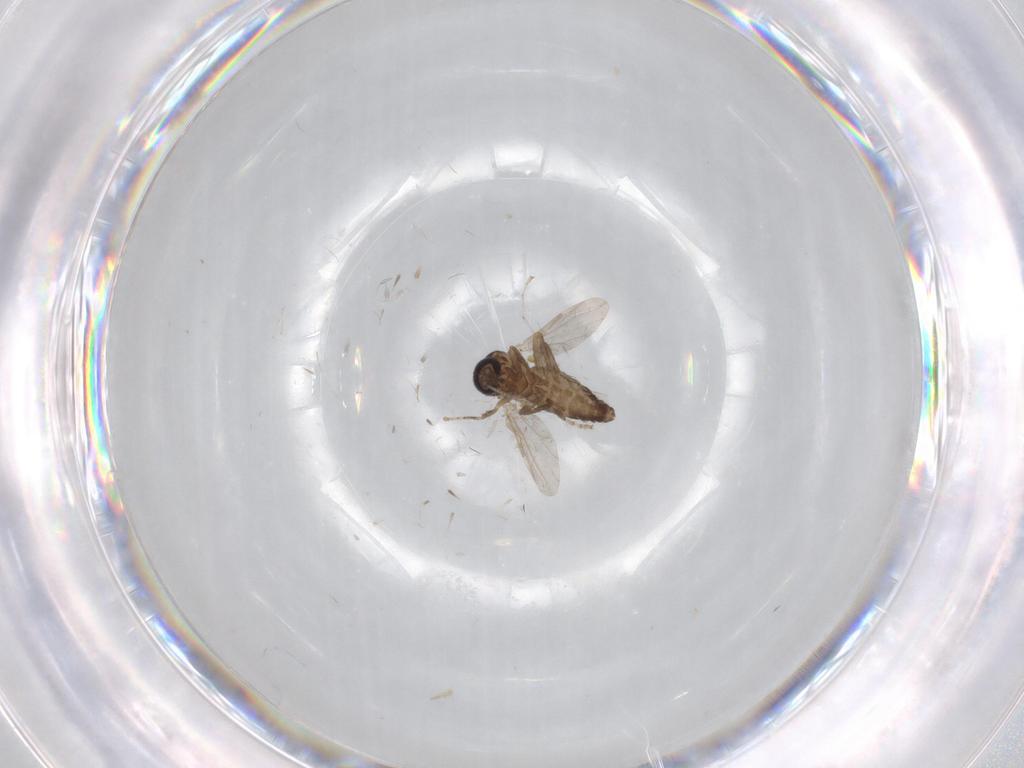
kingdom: Animalia
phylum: Arthropoda
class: Insecta
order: Diptera
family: Ceratopogonidae
